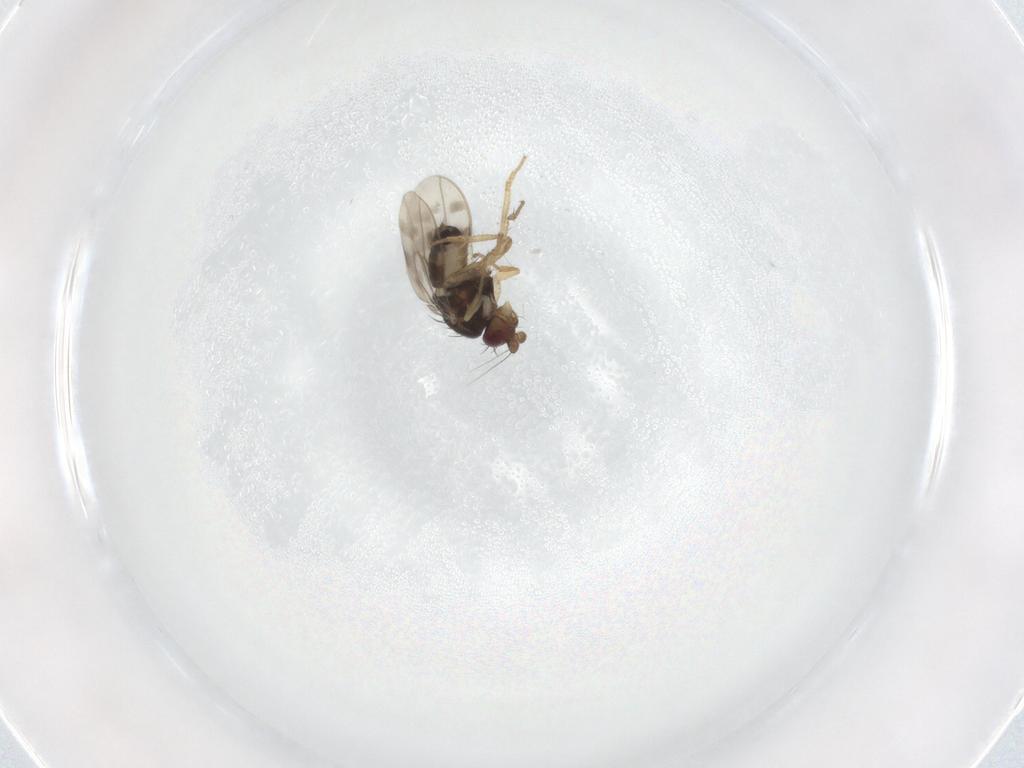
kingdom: Animalia
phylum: Arthropoda
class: Insecta
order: Diptera
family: Sphaeroceridae
